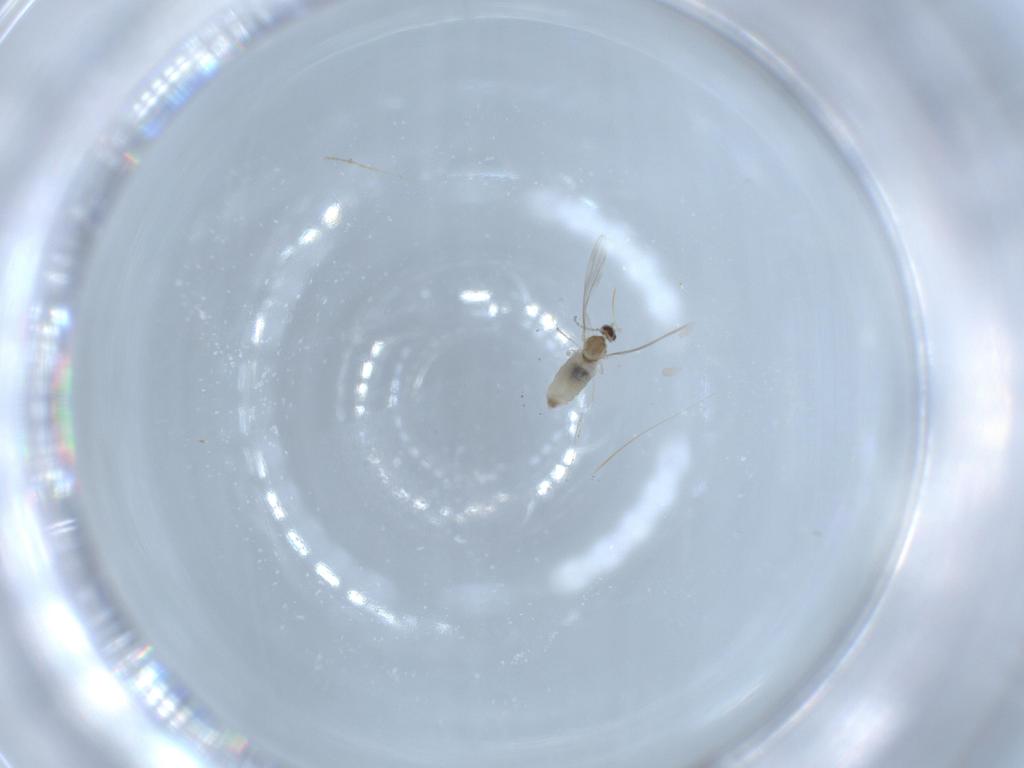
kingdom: Animalia
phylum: Arthropoda
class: Insecta
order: Diptera
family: Cecidomyiidae
